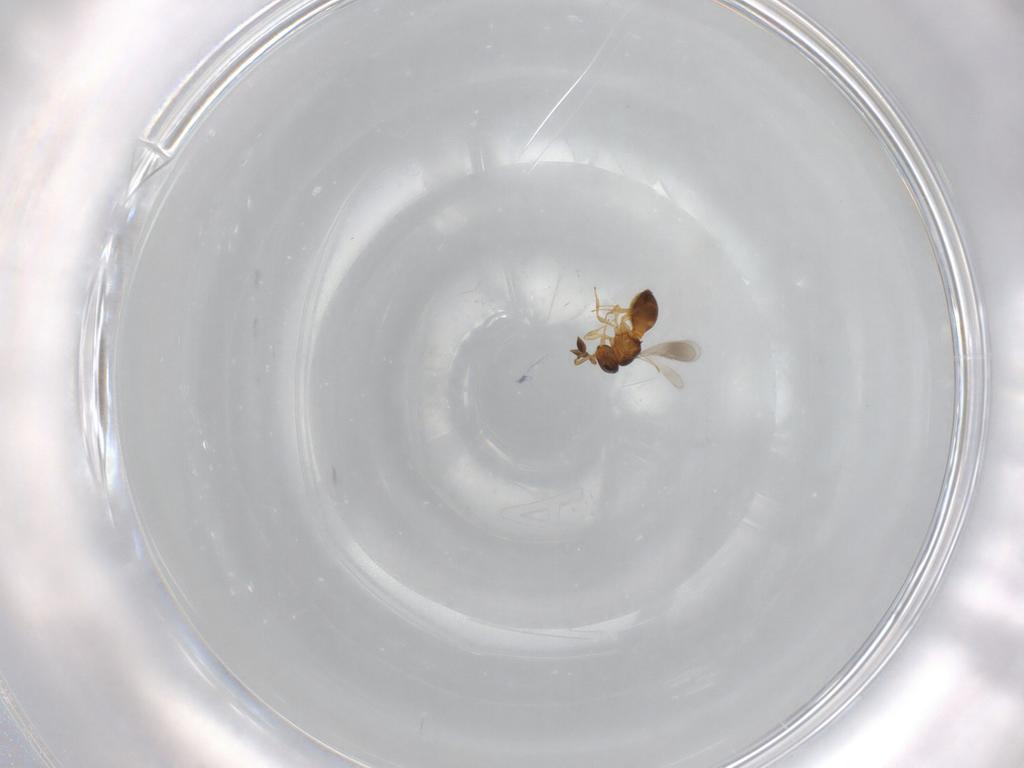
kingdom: Animalia
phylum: Arthropoda
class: Insecta
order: Hymenoptera
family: Scelionidae
